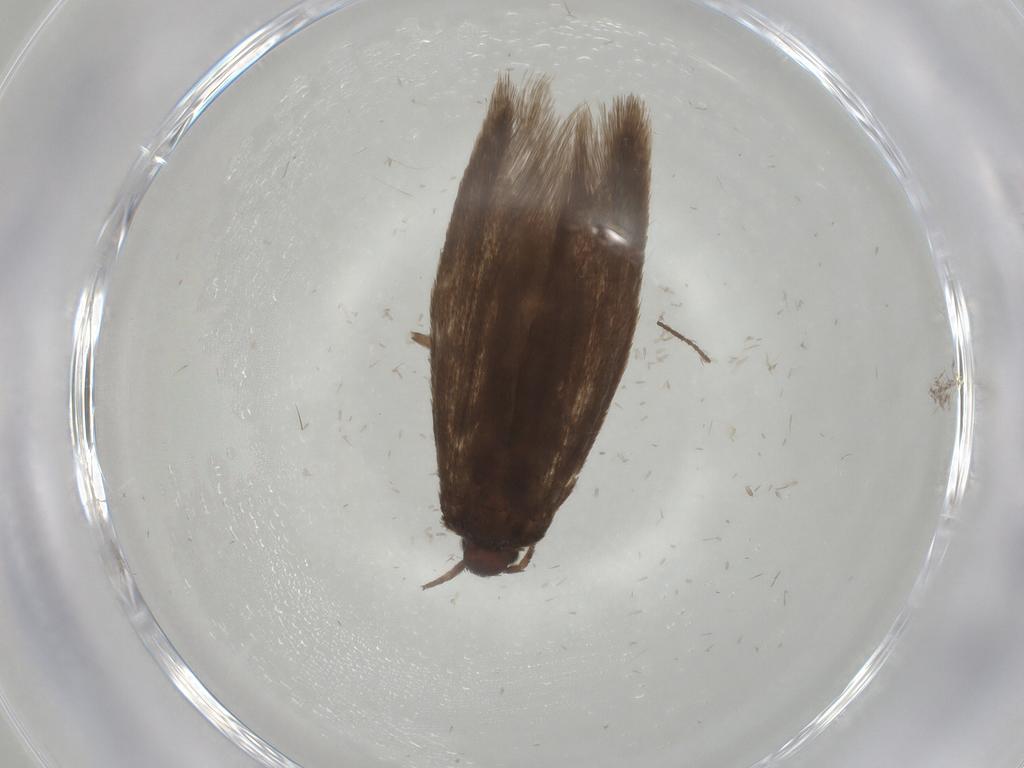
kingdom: Animalia
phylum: Arthropoda
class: Insecta
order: Lepidoptera
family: Limacodidae
